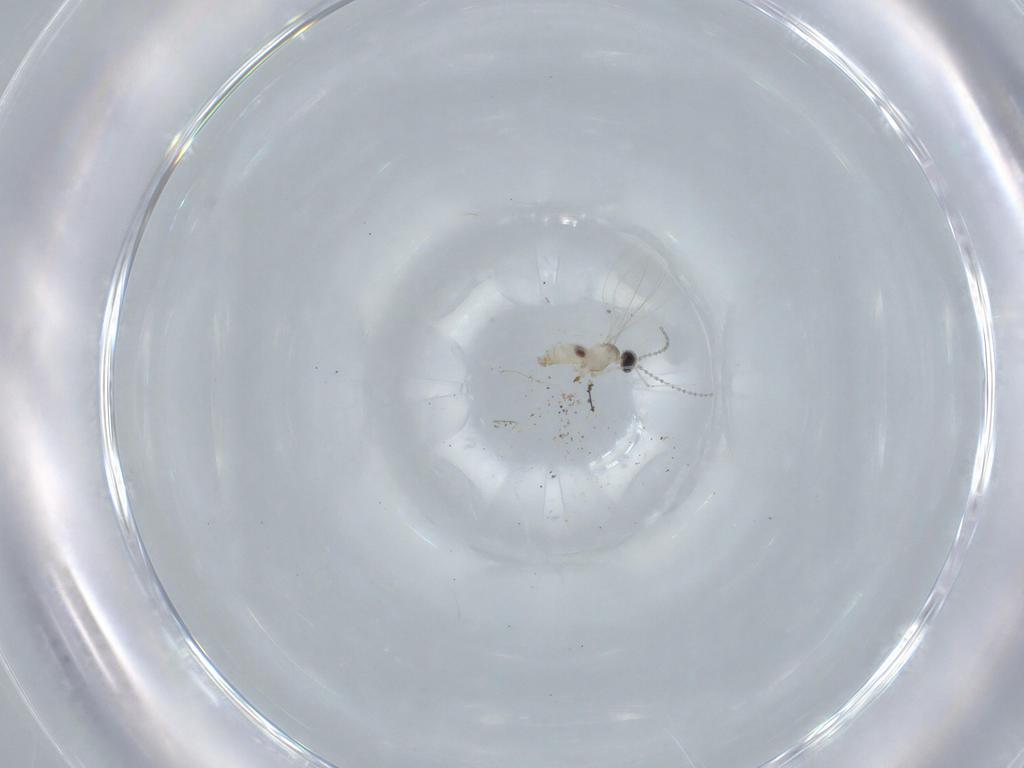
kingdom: Animalia
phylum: Arthropoda
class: Insecta
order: Diptera
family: Cecidomyiidae
